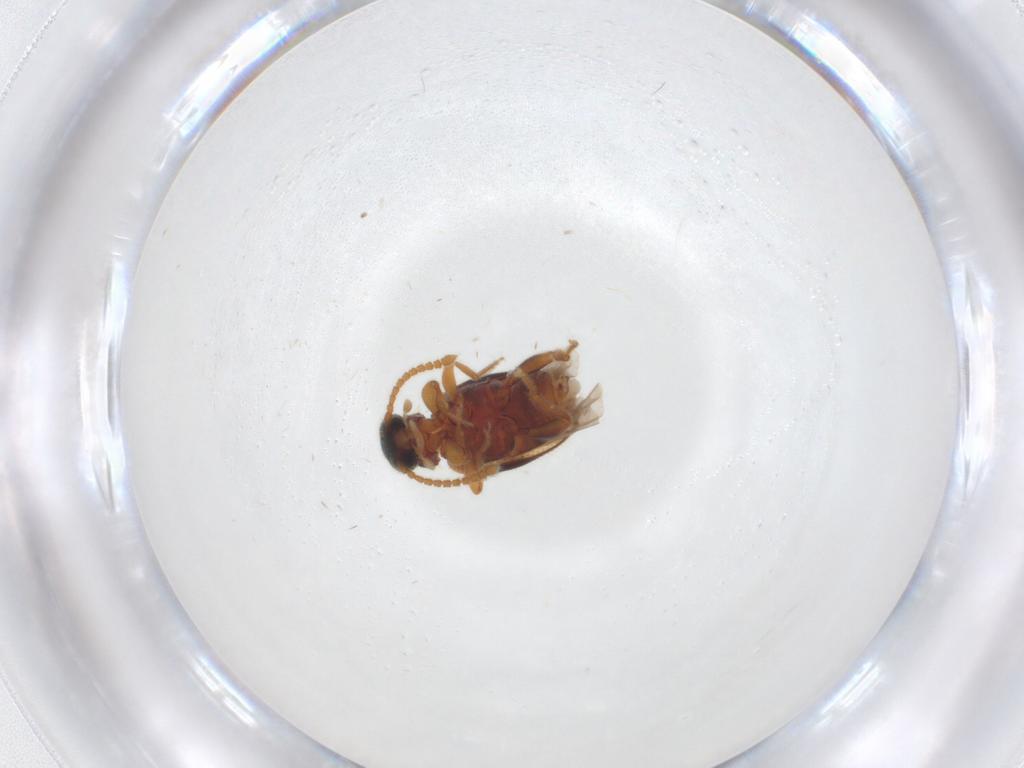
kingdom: Animalia
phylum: Arthropoda
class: Insecta
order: Coleoptera
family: Aderidae
